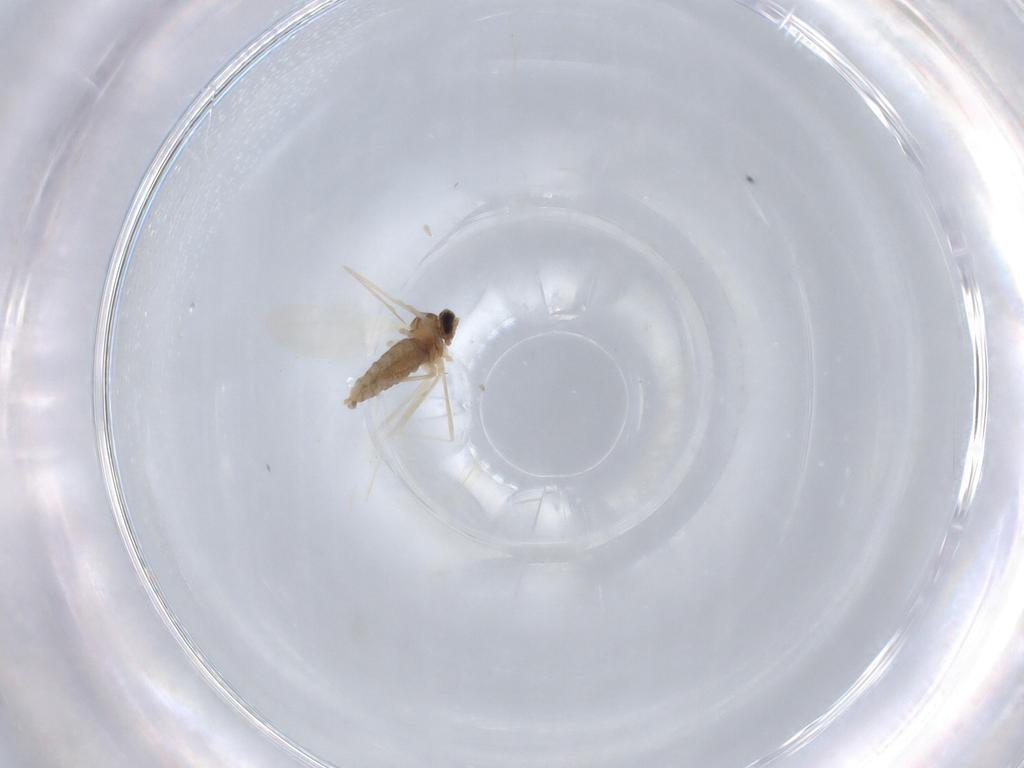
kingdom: Animalia
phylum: Arthropoda
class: Insecta
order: Diptera
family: Cecidomyiidae
